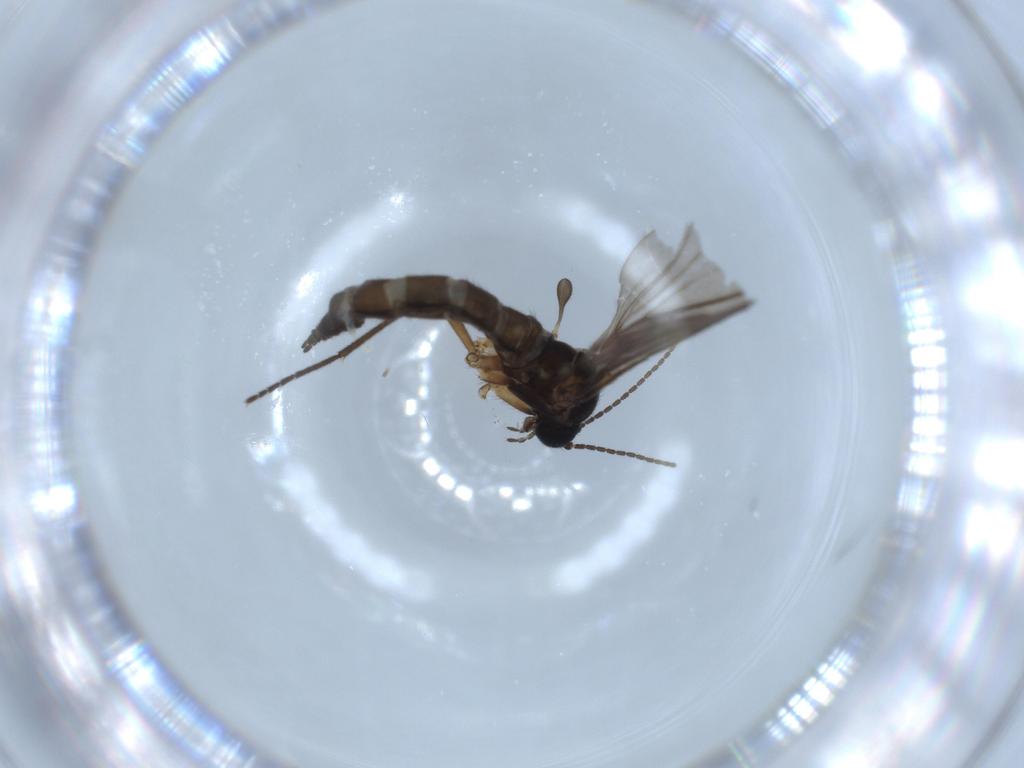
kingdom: Animalia
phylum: Arthropoda
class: Insecta
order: Diptera
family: Sciaridae
